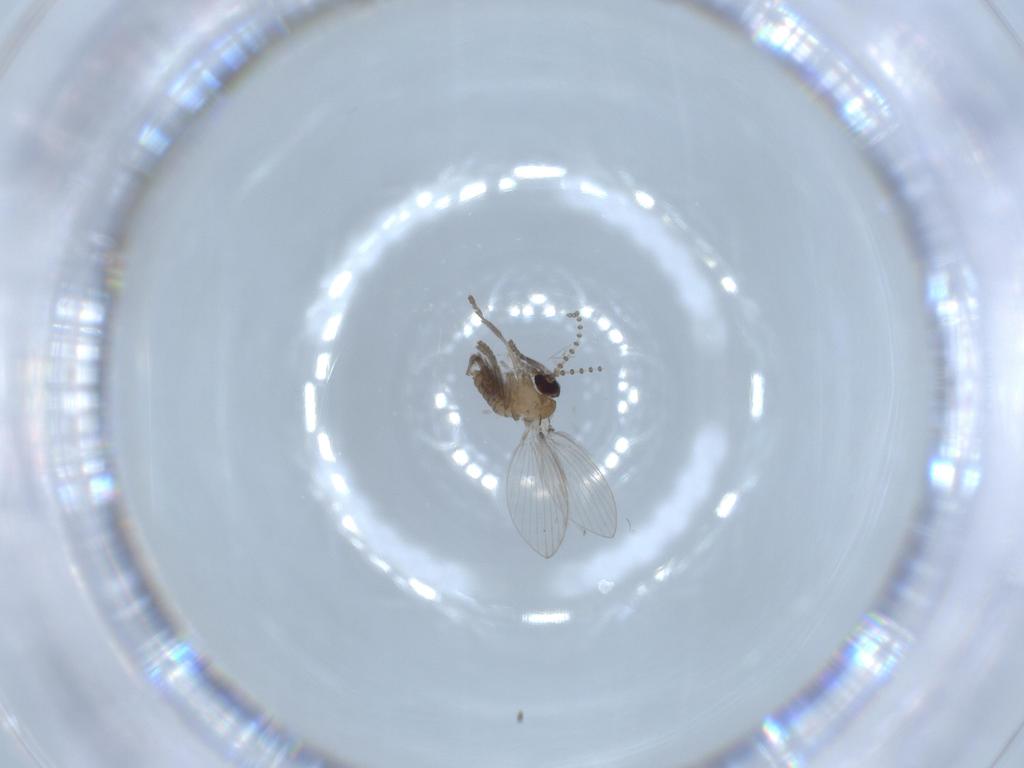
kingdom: Animalia
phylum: Arthropoda
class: Insecta
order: Diptera
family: Psychodidae
